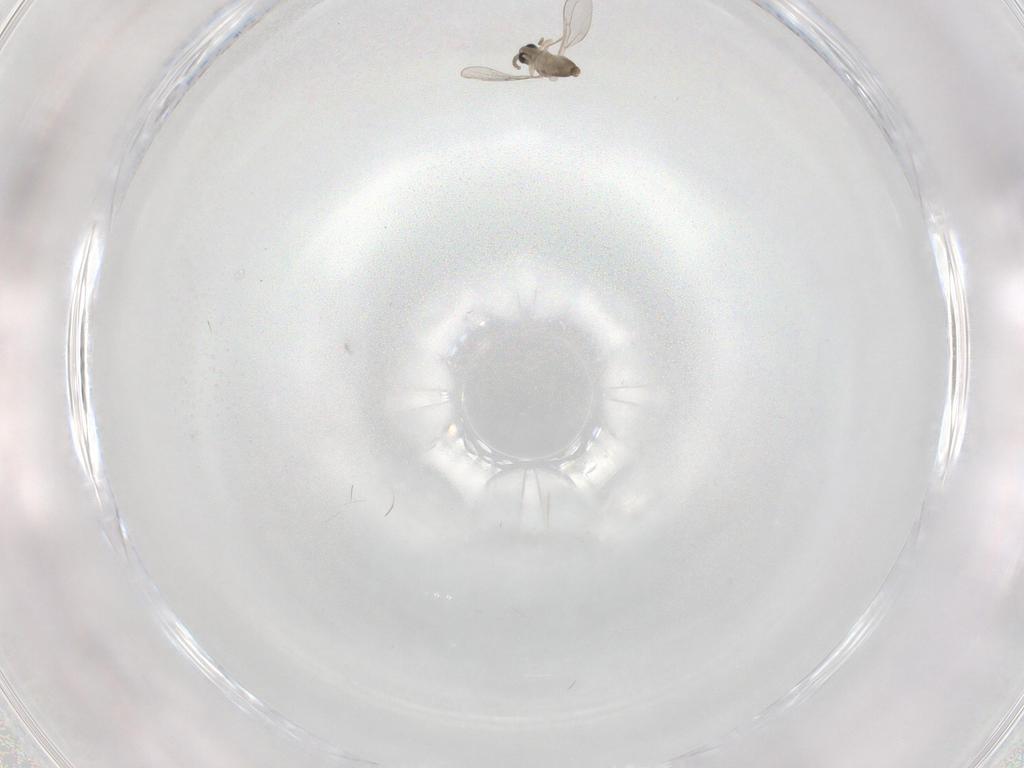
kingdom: Animalia
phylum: Arthropoda
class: Insecta
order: Diptera
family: Cecidomyiidae
